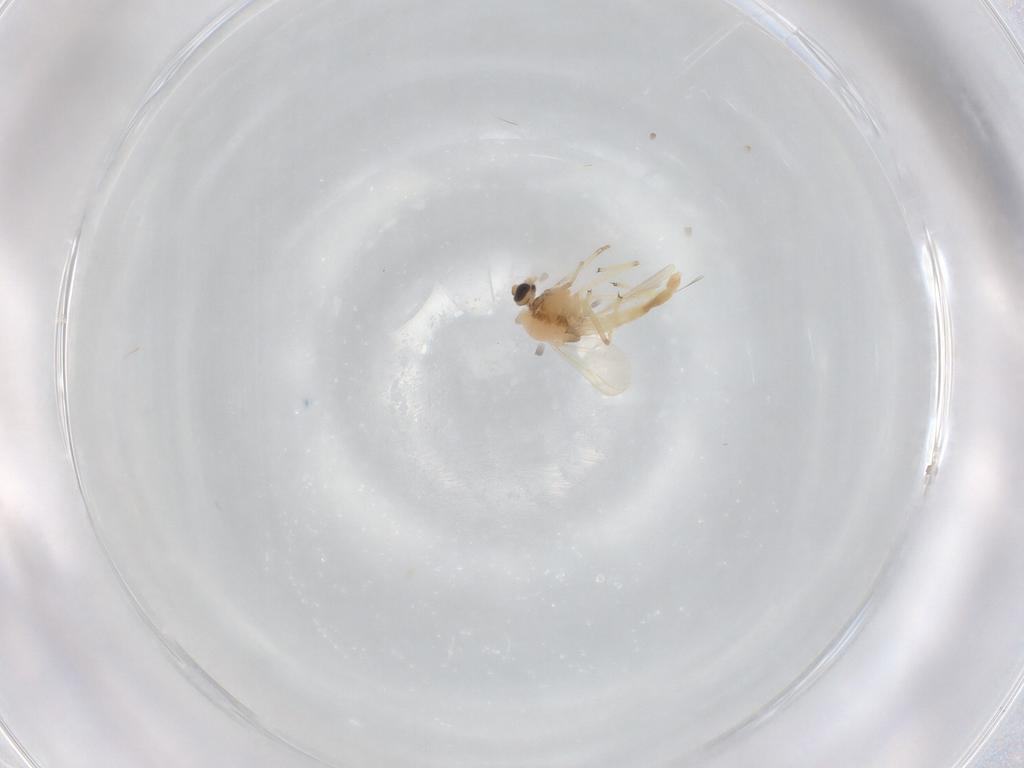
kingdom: Animalia
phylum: Arthropoda
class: Insecta
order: Diptera
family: Chironomidae
